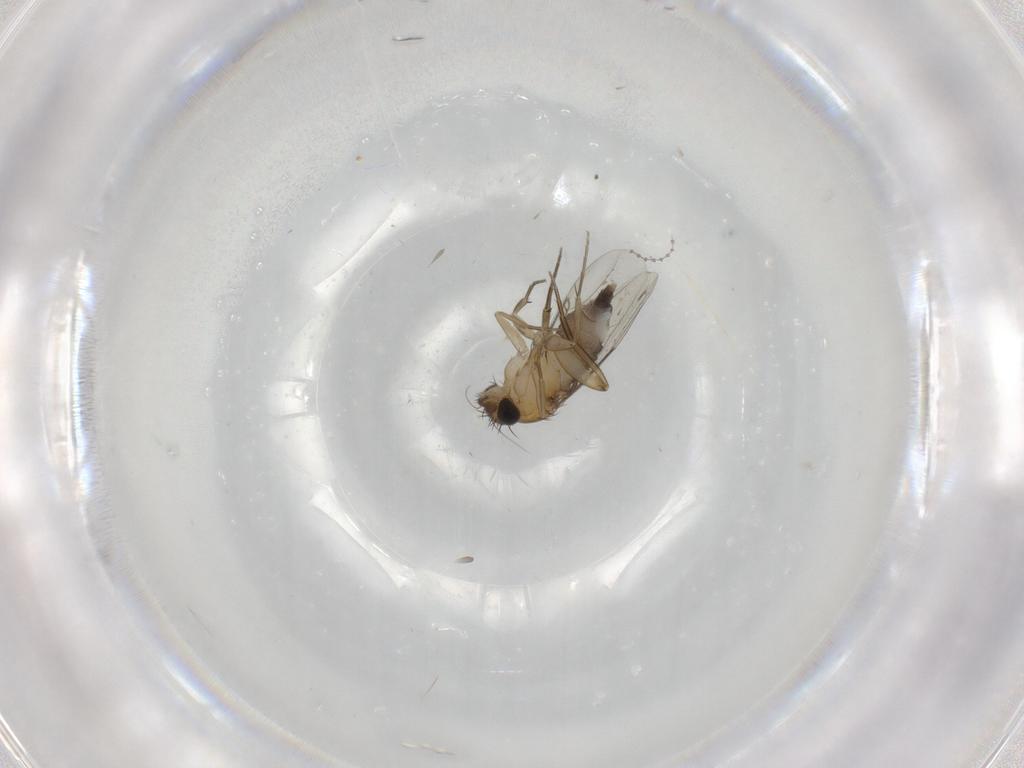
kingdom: Animalia
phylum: Arthropoda
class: Insecta
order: Diptera
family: Phoridae
